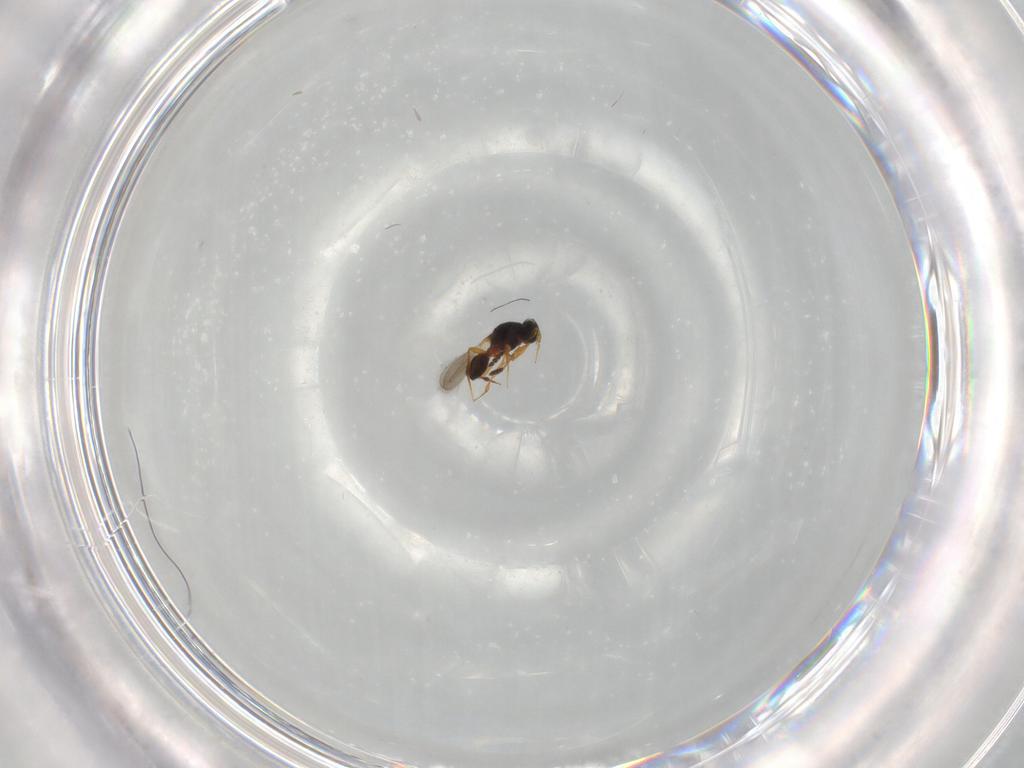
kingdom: Animalia
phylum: Arthropoda
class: Insecta
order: Hymenoptera
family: Platygastridae
